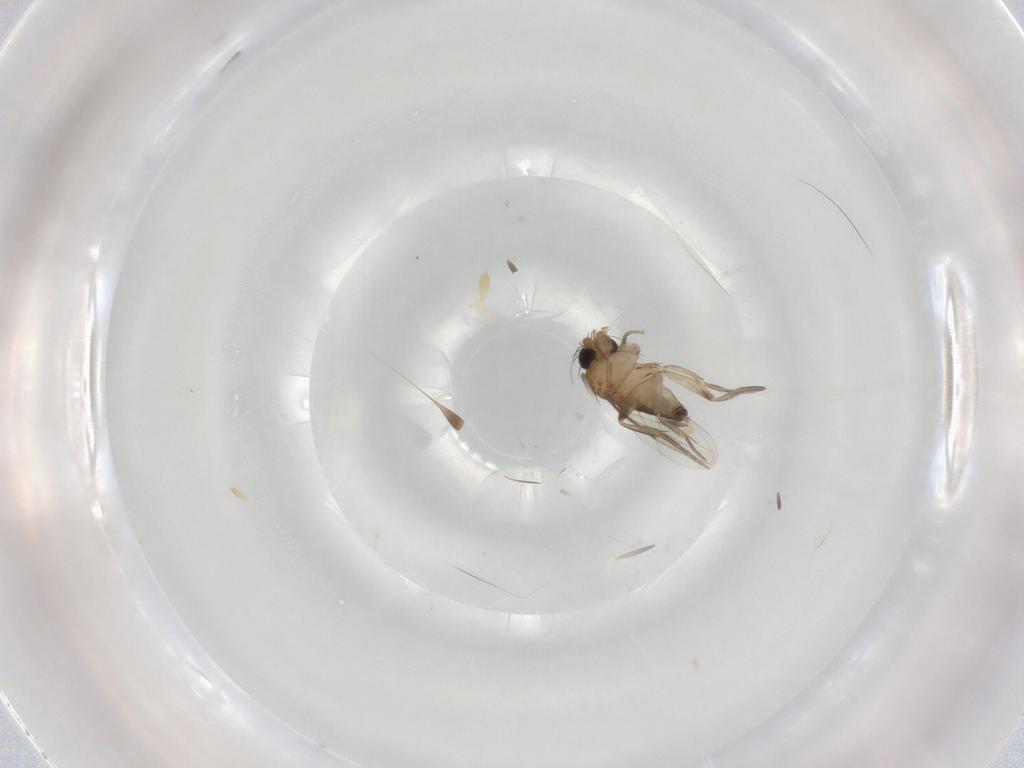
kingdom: Animalia
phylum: Arthropoda
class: Insecta
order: Diptera
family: Phoridae
